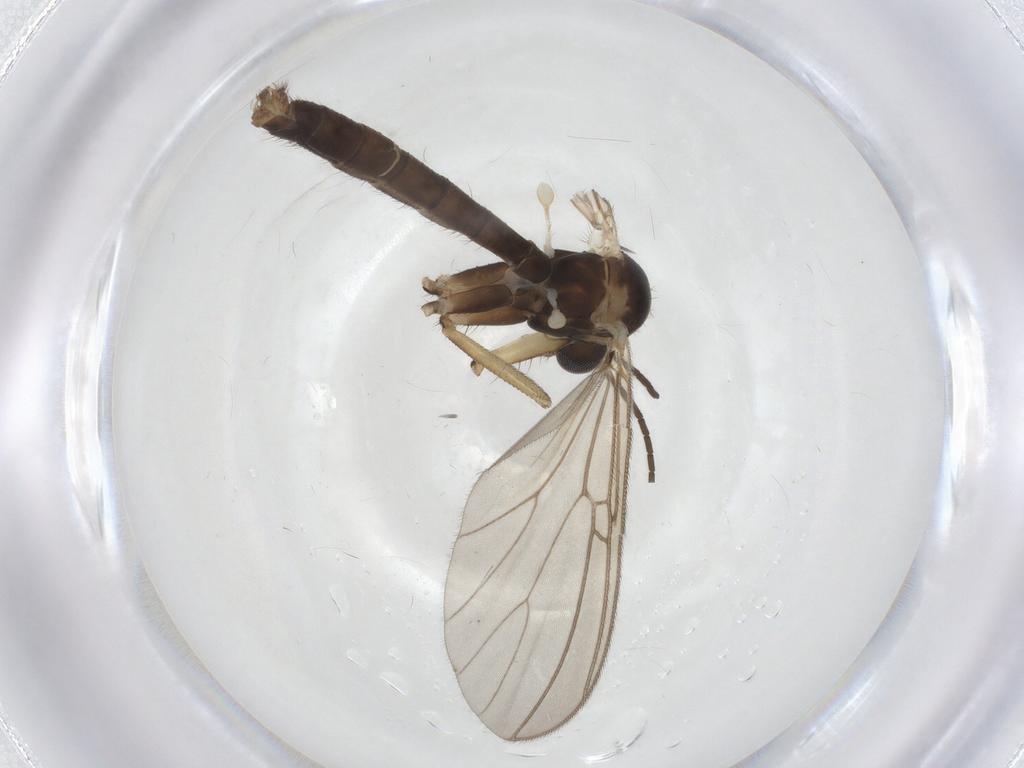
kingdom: Animalia
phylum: Arthropoda
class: Insecta
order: Diptera
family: Mycetophilidae
